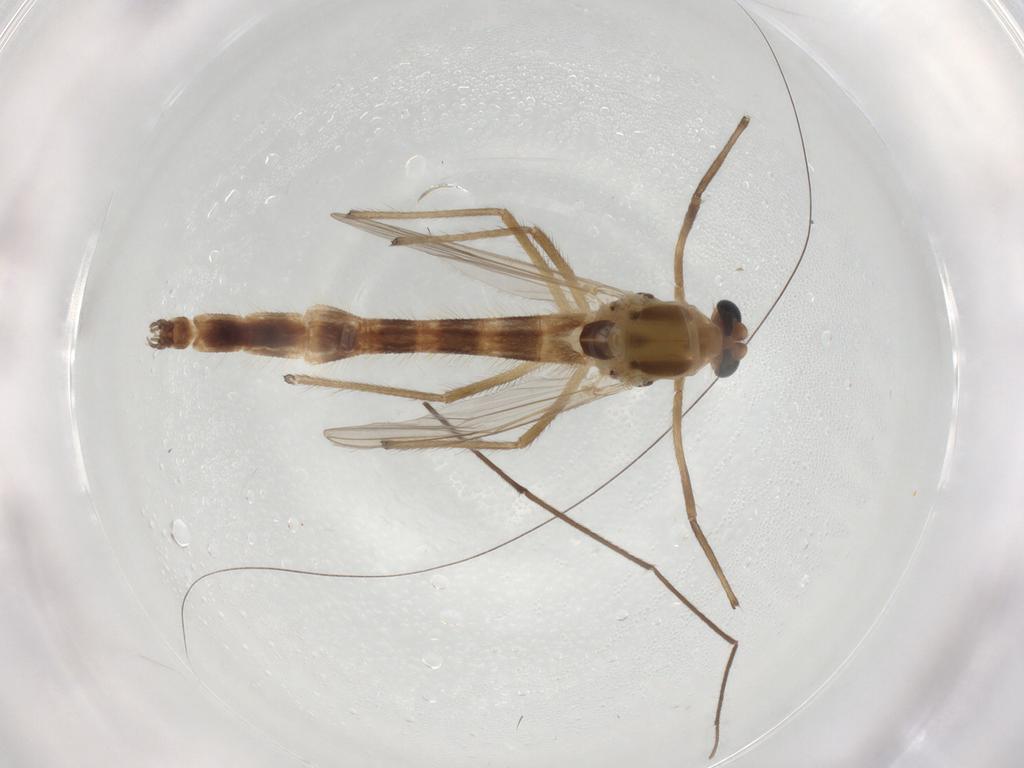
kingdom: Animalia
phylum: Arthropoda
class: Insecta
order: Diptera
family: Chironomidae
